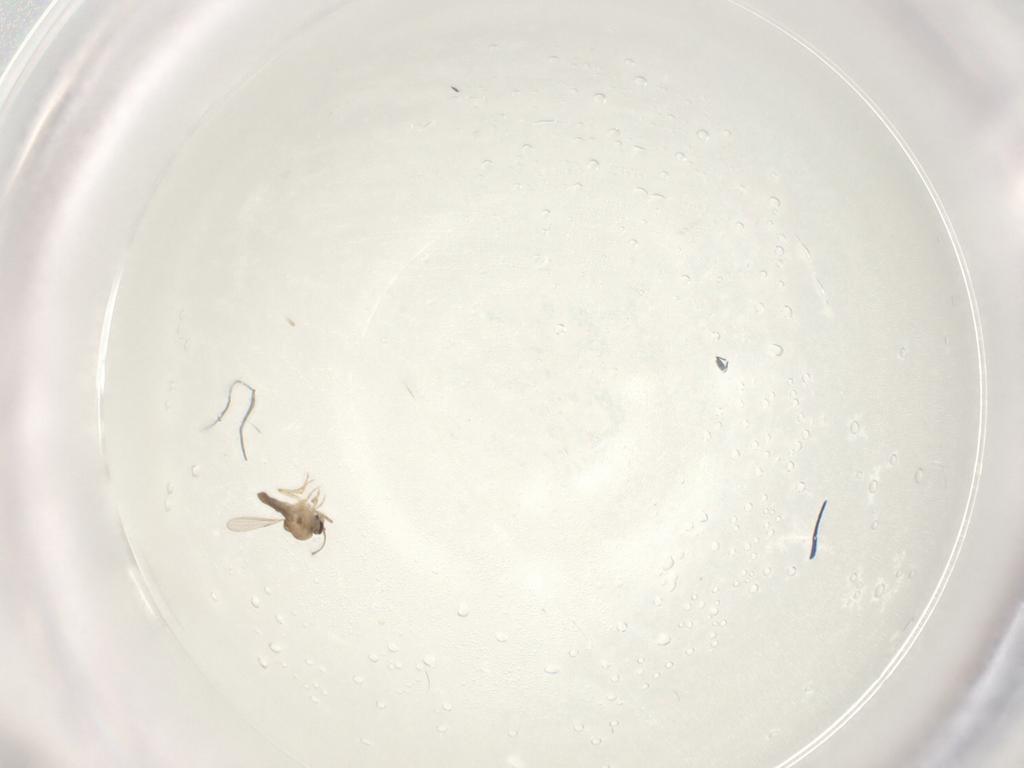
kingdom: Animalia
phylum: Arthropoda
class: Insecta
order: Diptera
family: Ceratopogonidae
